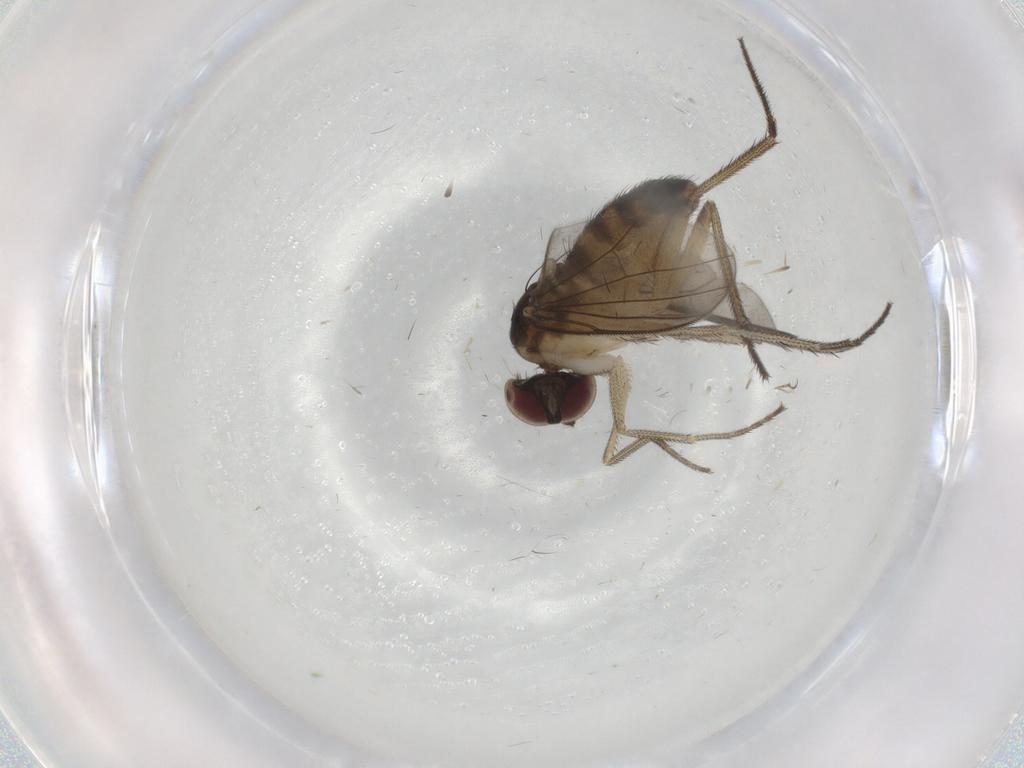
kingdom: Animalia
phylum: Arthropoda
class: Insecta
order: Diptera
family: Dolichopodidae
